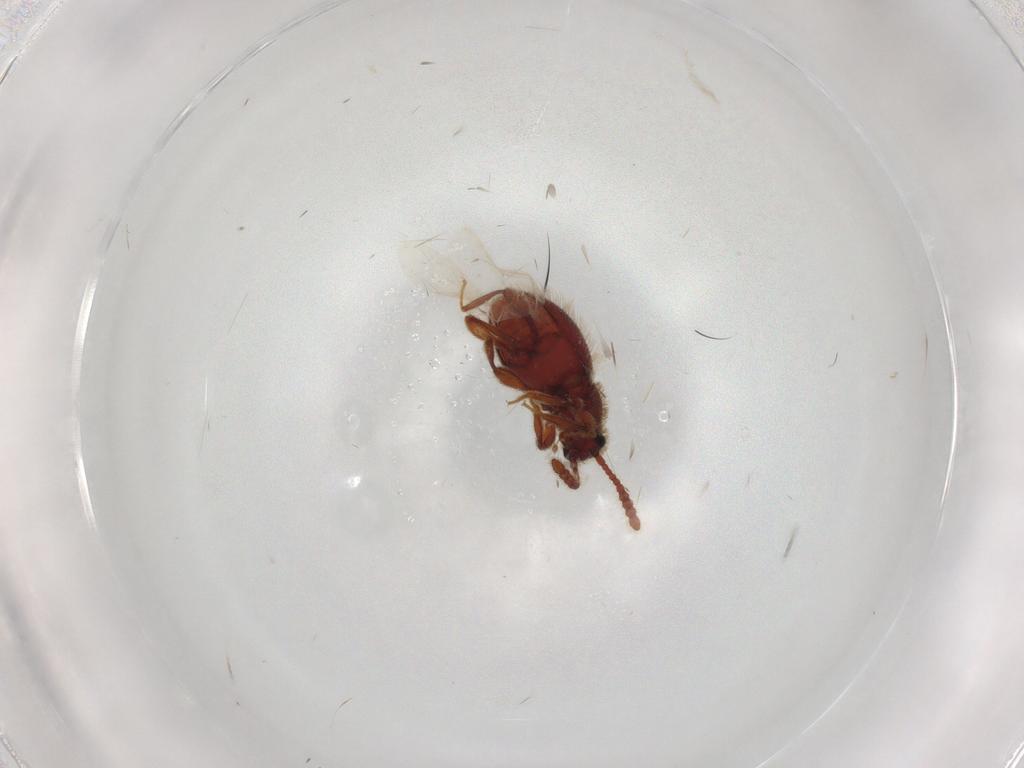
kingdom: Animalia
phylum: Arthropoda
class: Insecta
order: Coleoptera
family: Staphylinidae
